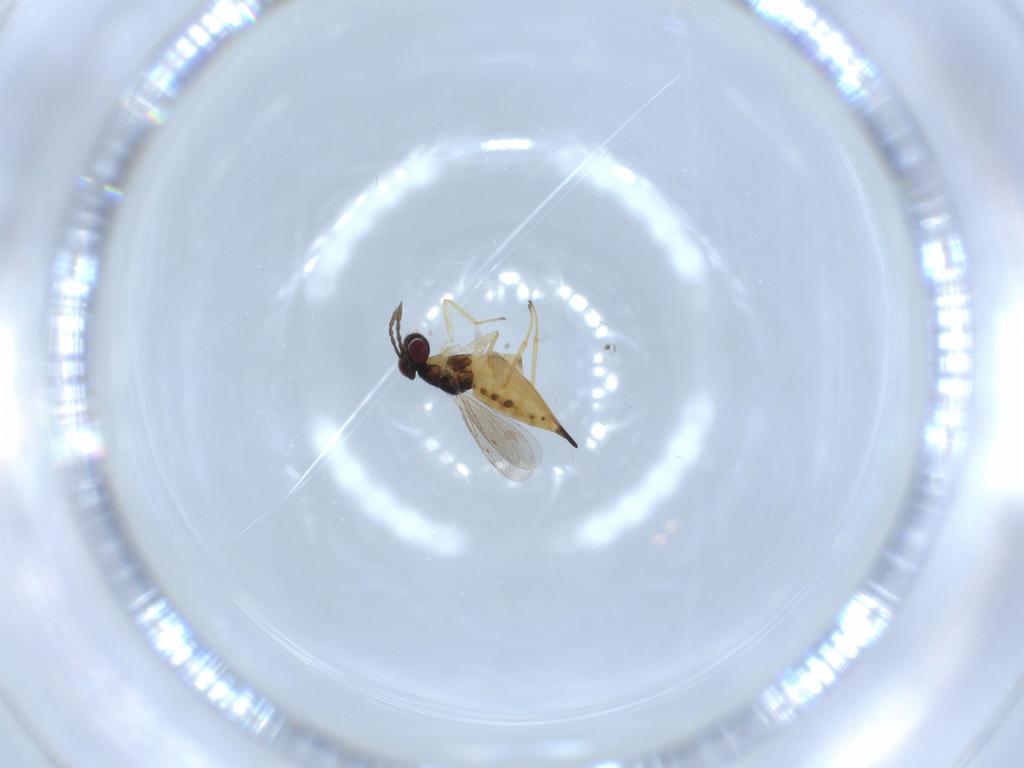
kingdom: Animalia
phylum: Arthropoda
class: Insecta
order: Hymenoptera
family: Eulophidae
